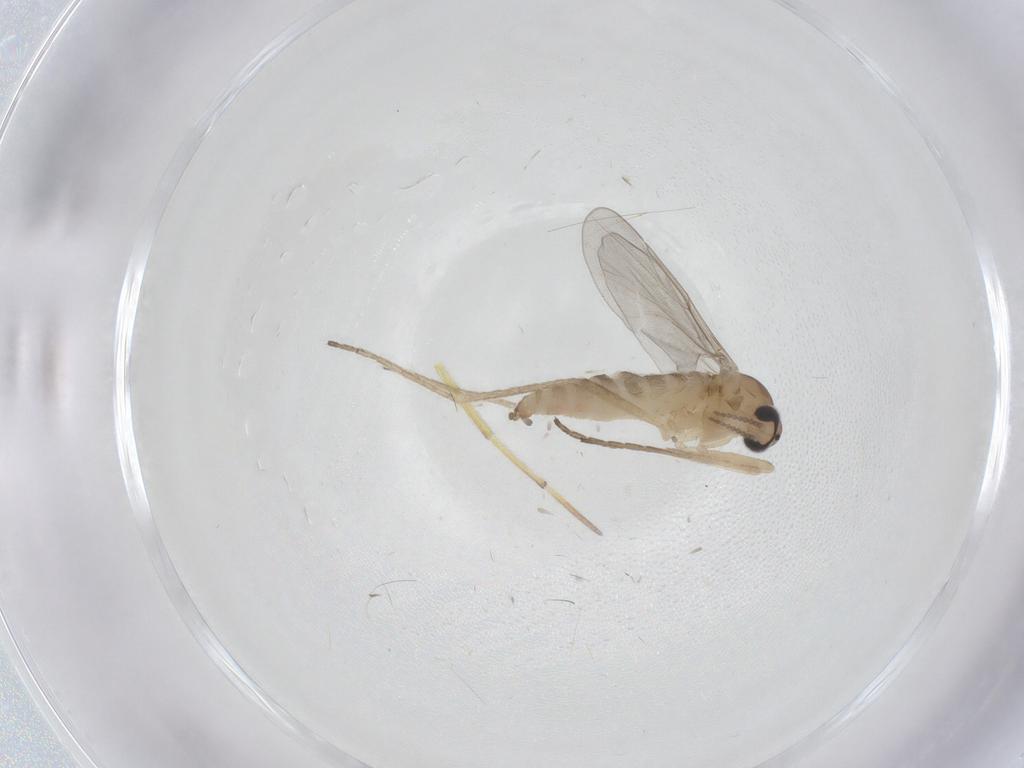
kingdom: Animalia
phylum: Arthropoda
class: Insecta
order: Diptera
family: Cecidomyiidae
